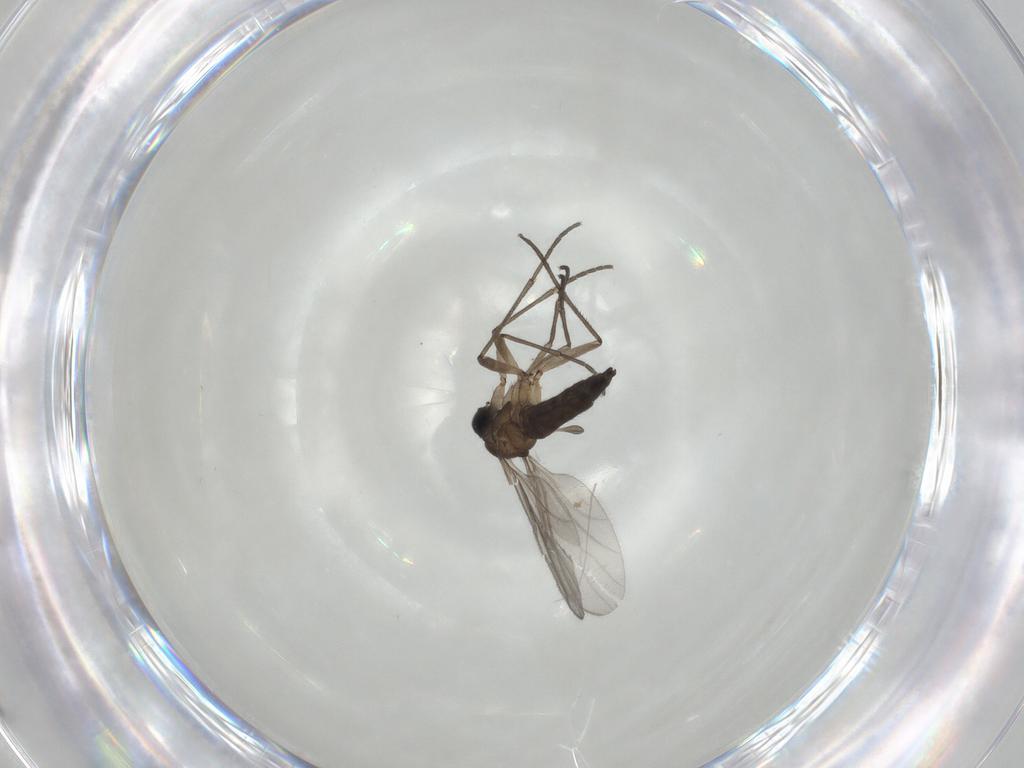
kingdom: Animalia
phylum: Arthropoda
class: Insecta
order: Diptera
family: Sciaridae
